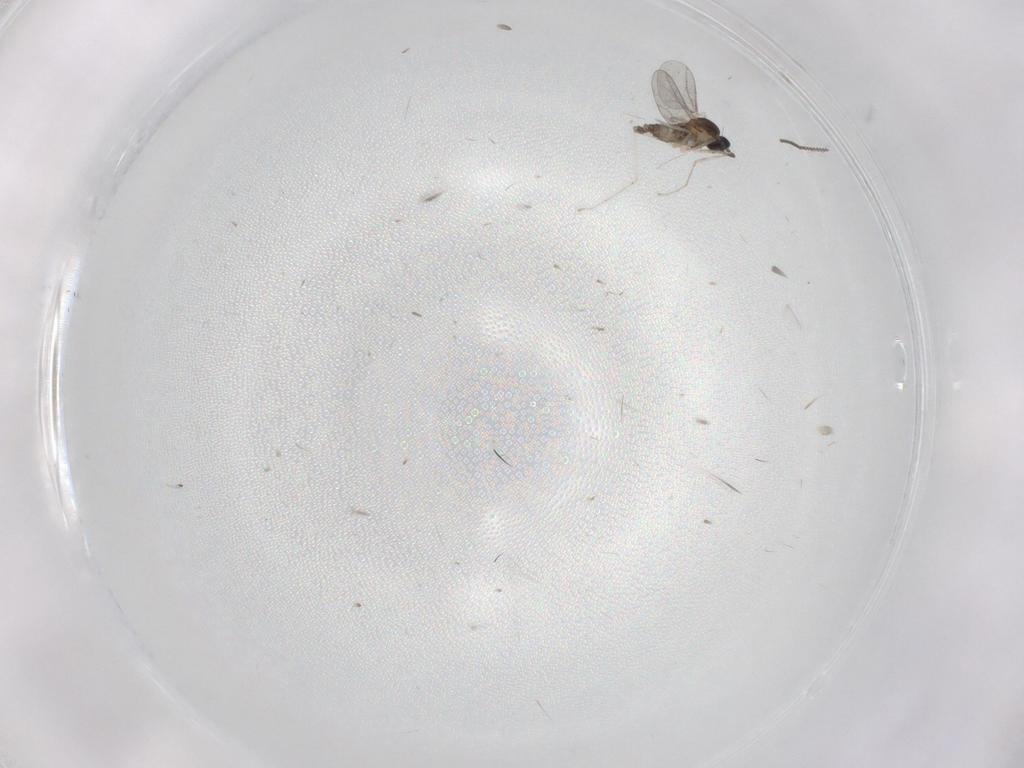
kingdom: Animalia
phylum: Arthropoda
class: Insecta
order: Diptera
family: Cecidomyiidae
